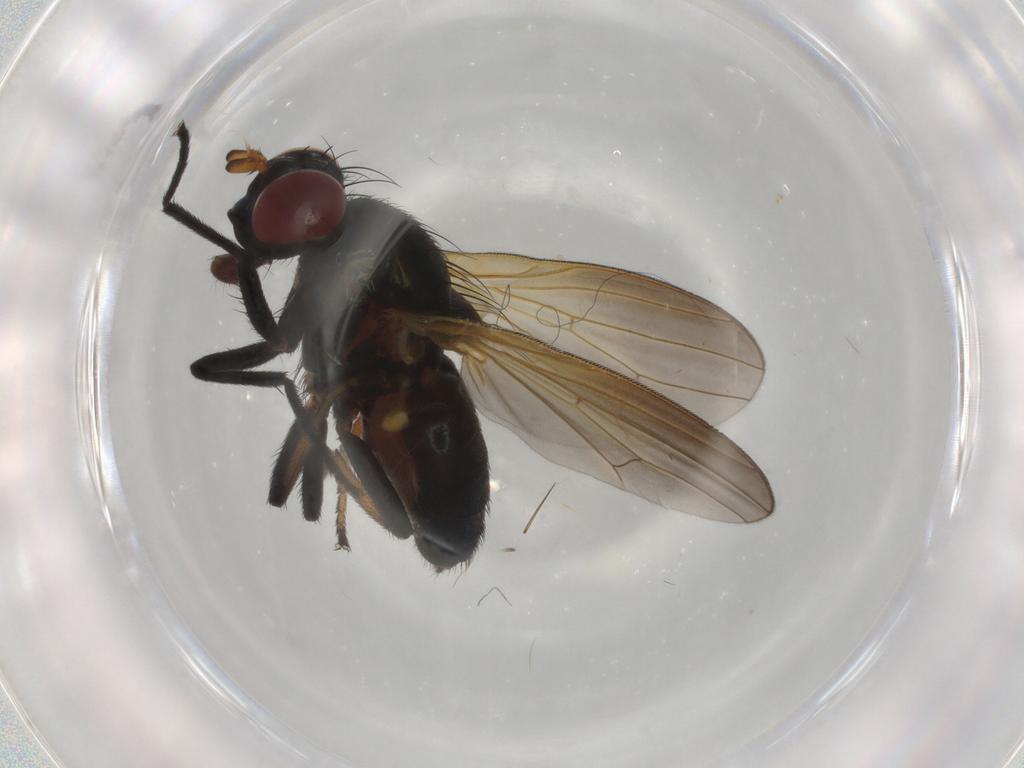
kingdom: Animalia
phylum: Arthropoda
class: Insecta
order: Diptera
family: Lauxaniidae
